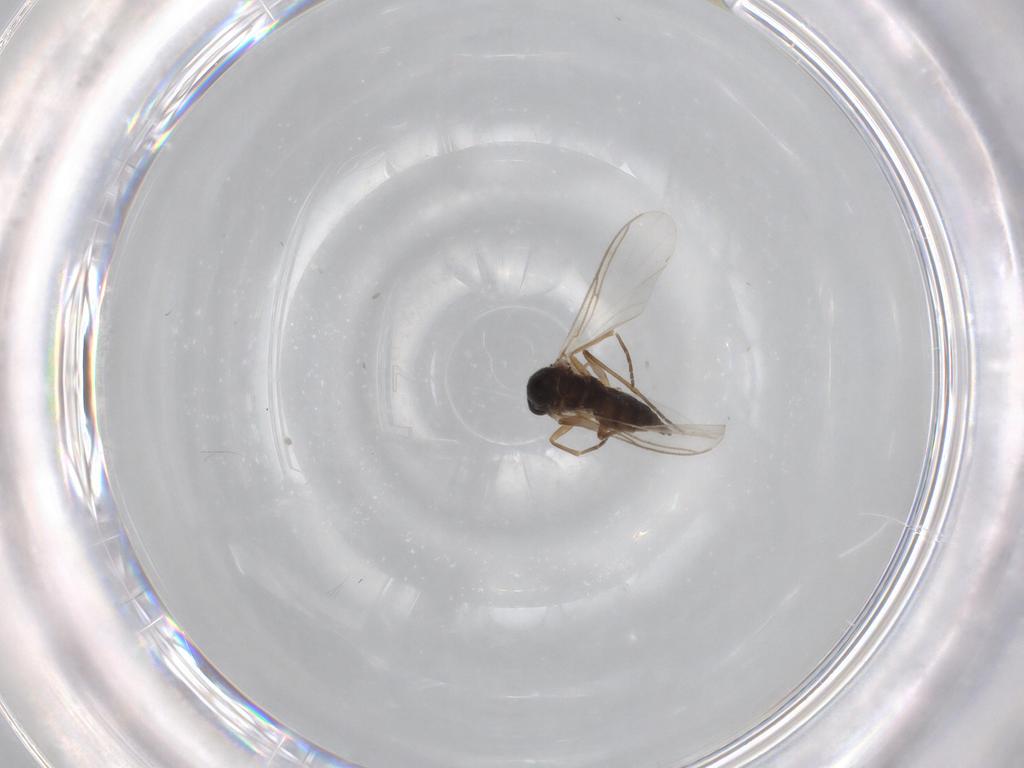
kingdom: Animalia
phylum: Arthropoda
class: Insecta
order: Diptera
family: Sciaridae
